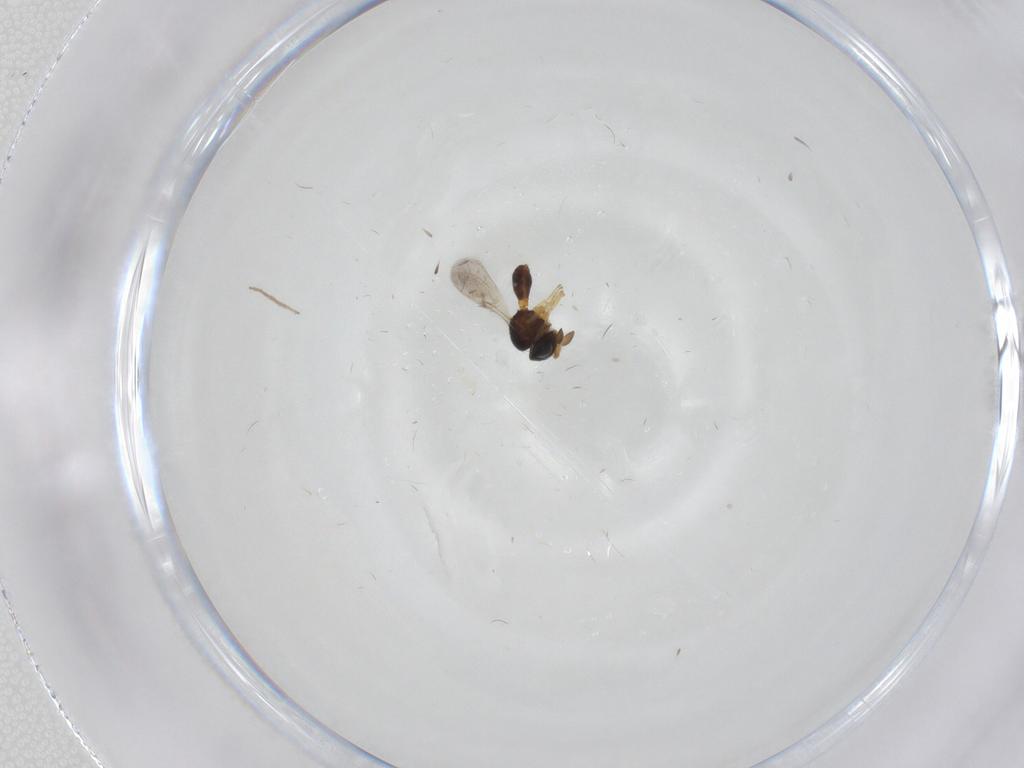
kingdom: Animalia
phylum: Arthropoda
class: Insecta
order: Hymenoptera
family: Scelionidae
